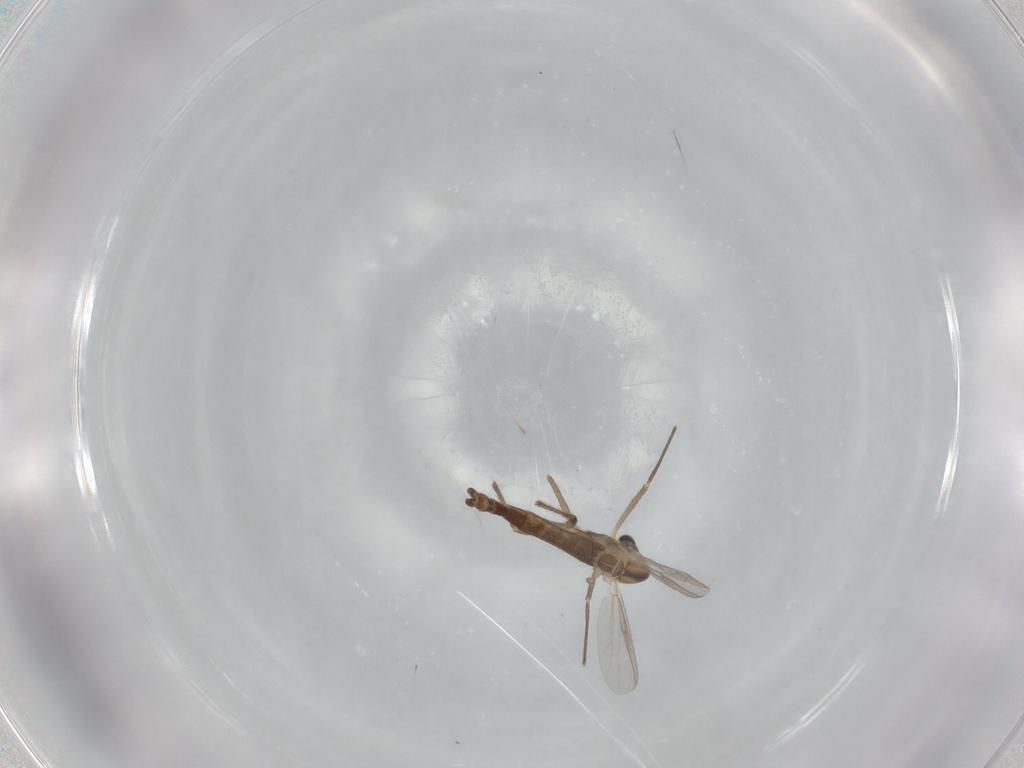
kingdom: Animalia
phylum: Arthropoda
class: Insecta
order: Diptera
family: Chironomidae
